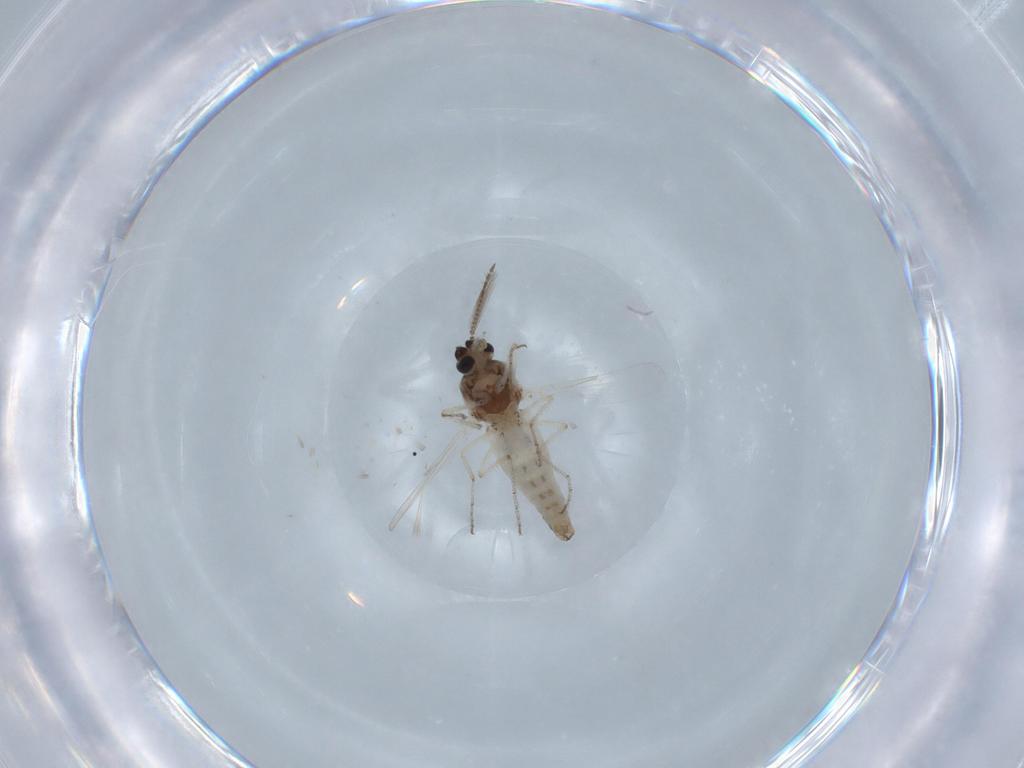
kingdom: Animalia
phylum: Arthropoda
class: Insecta
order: Diptera
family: Ceratopogonidae
